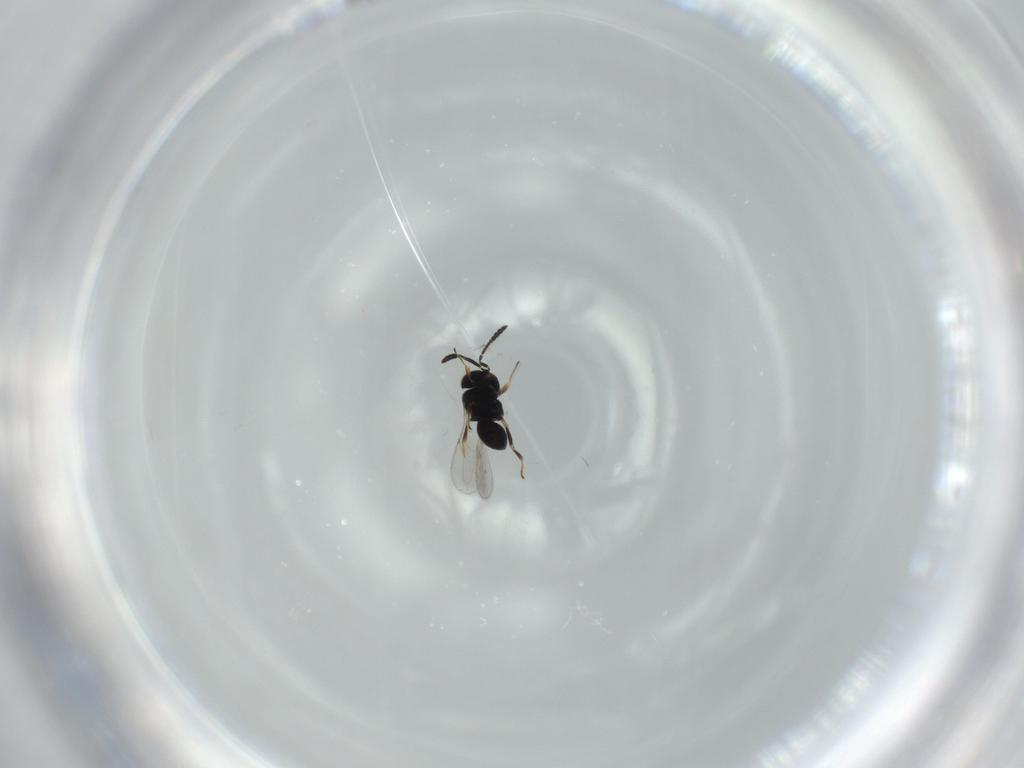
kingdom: Animalia
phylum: Arthropoda
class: Insecta
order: Hymenoptera
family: Scelionidae
